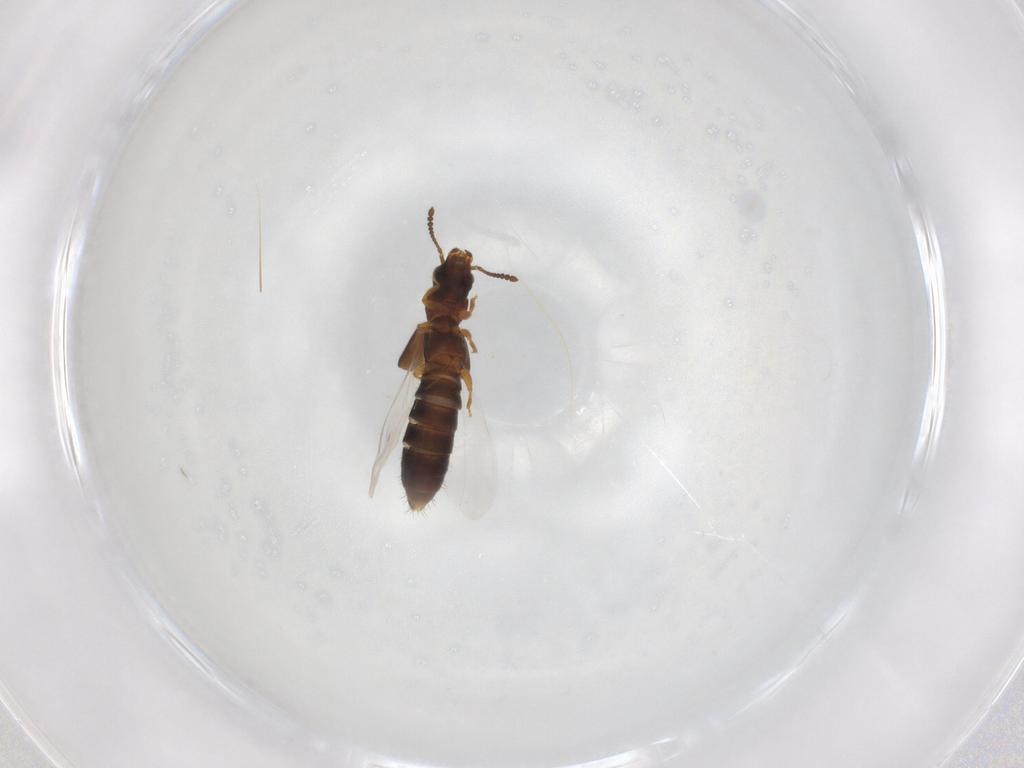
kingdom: Animalia
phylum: Arthropoda
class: Insecta
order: Coleoptera
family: Staphylinidae
